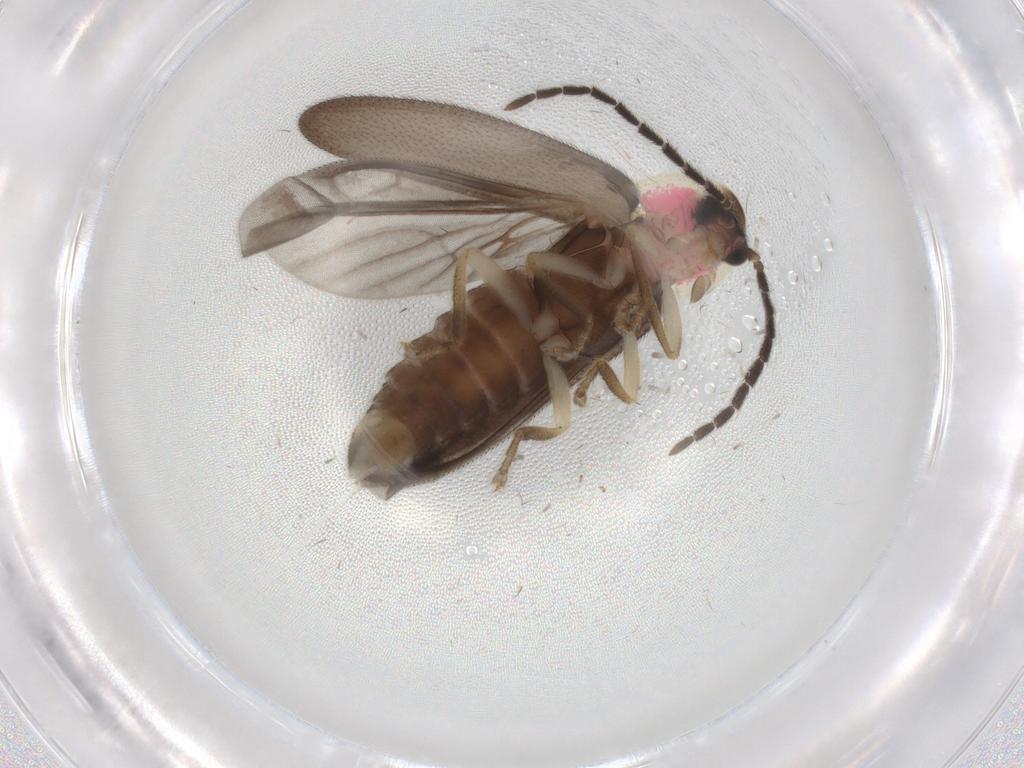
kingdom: Animalia
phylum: Arthropoda
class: Insecta
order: Coleoptera
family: Lampyridae
